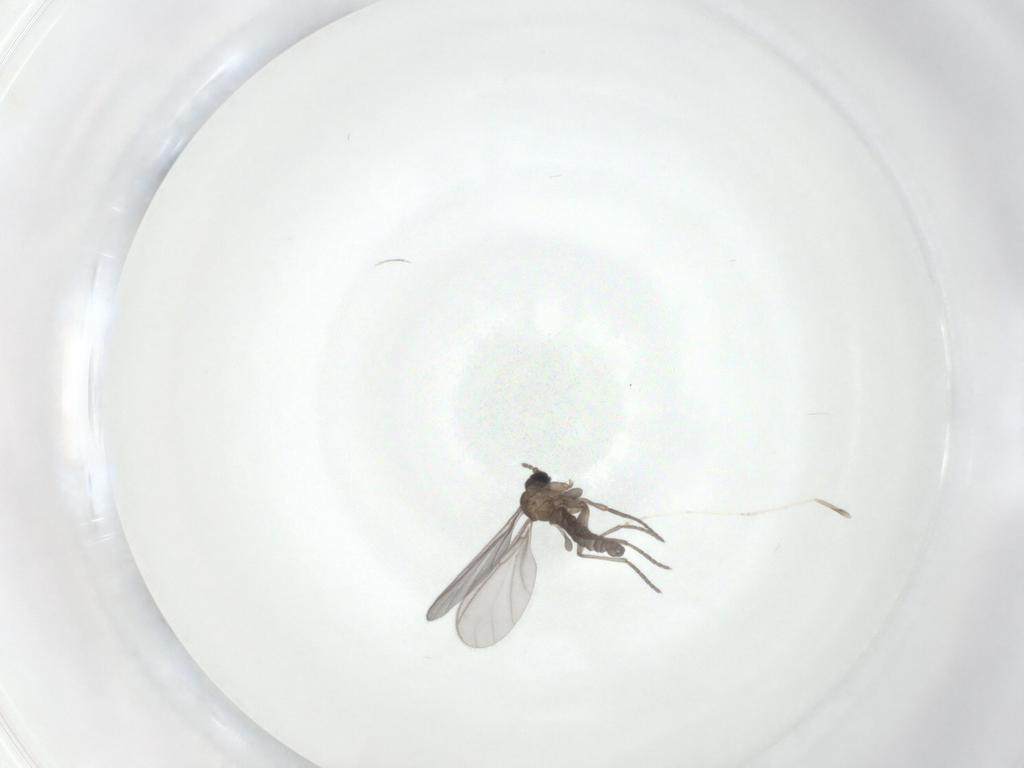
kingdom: Animalia
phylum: Arthropoda
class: Insecta
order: Diptera
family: Sciaridae
